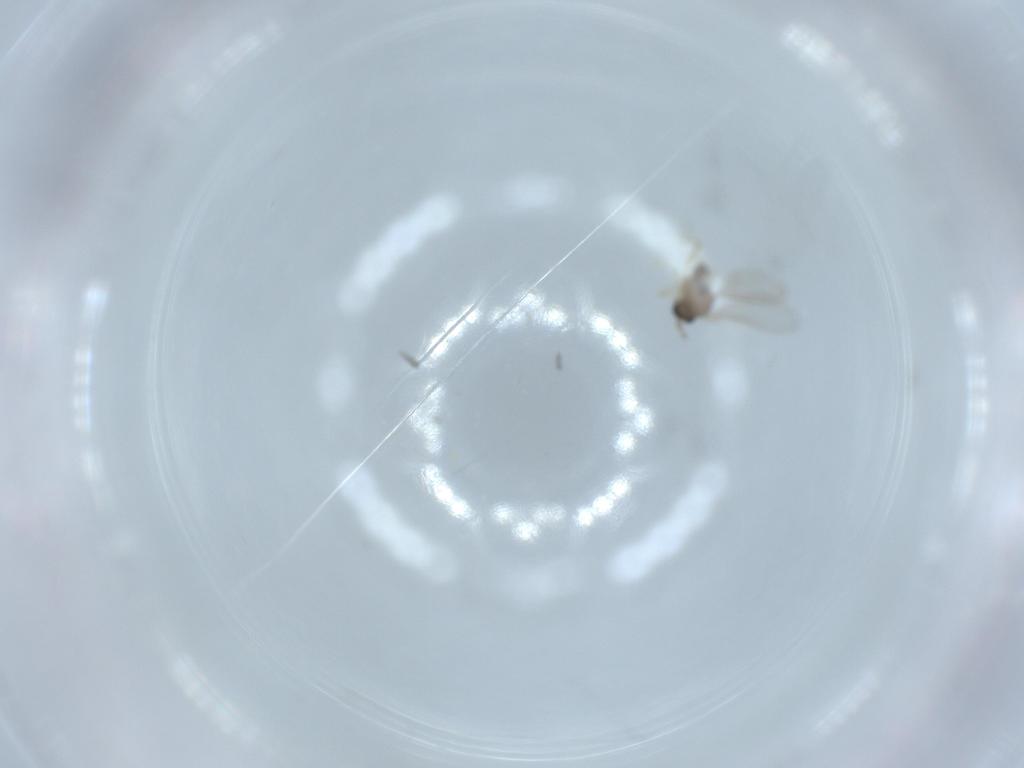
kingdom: Animalia
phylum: Arthropoda
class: Insecta
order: Diptera
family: Cecidomyiidae
